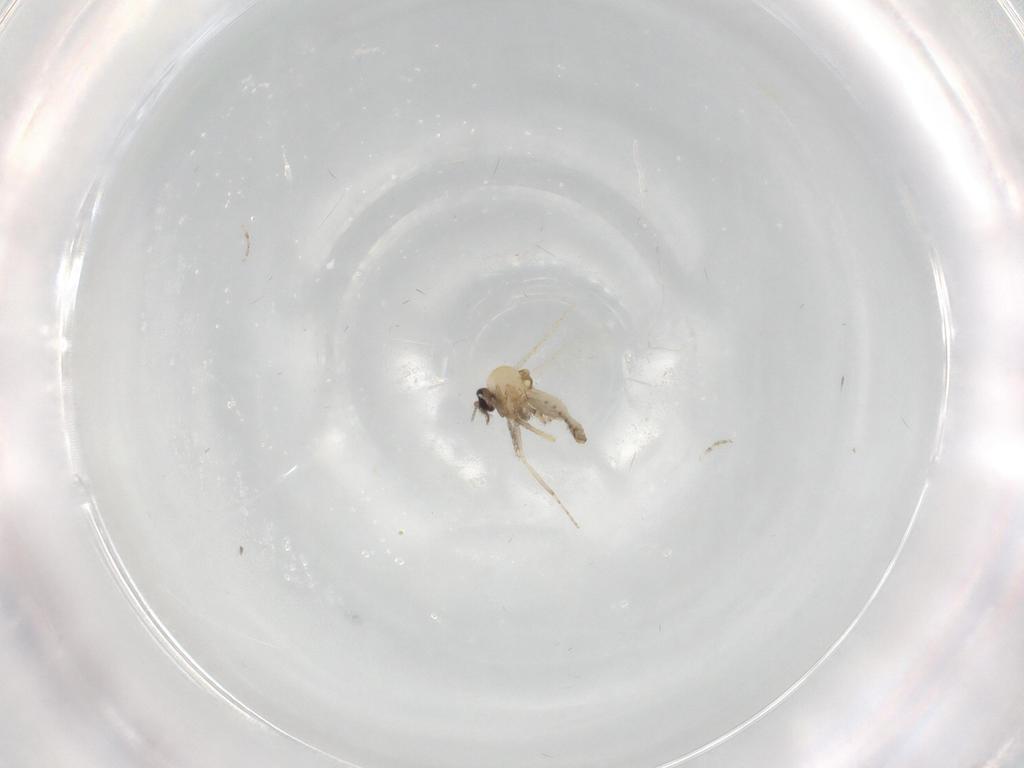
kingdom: Animalia
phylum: Arthropoda
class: Insecta
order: Diptera
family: Ceratopogonidae
